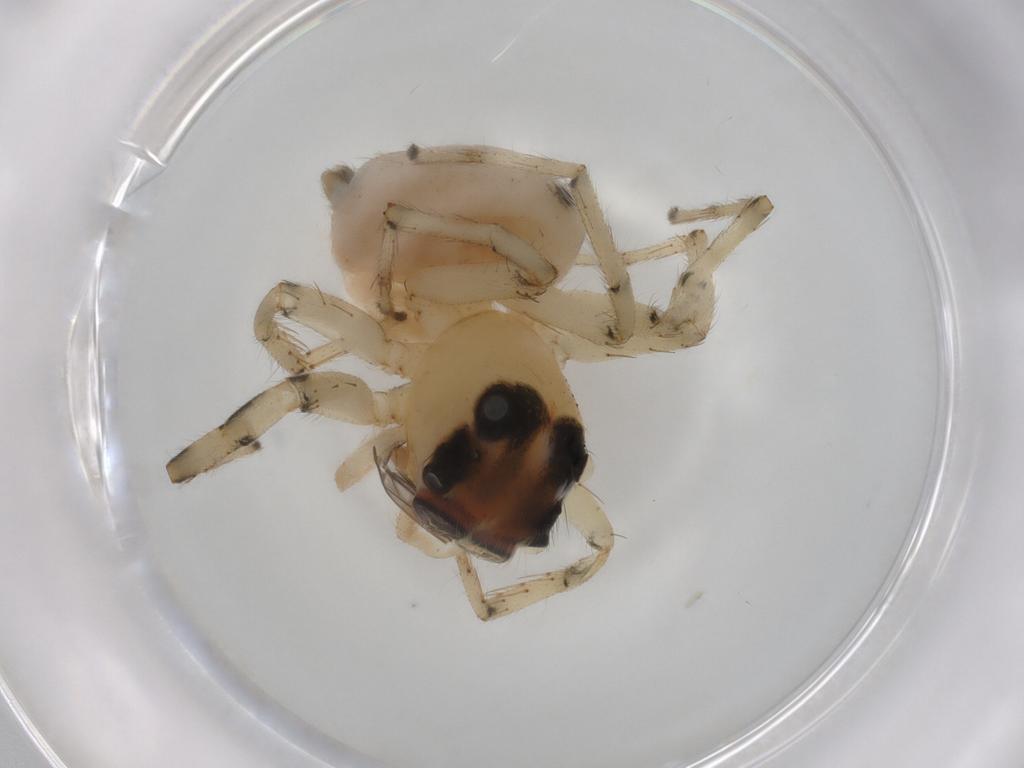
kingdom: Animalia
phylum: Arthropoda
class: Arachnida
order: Araneae
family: Salticidae
